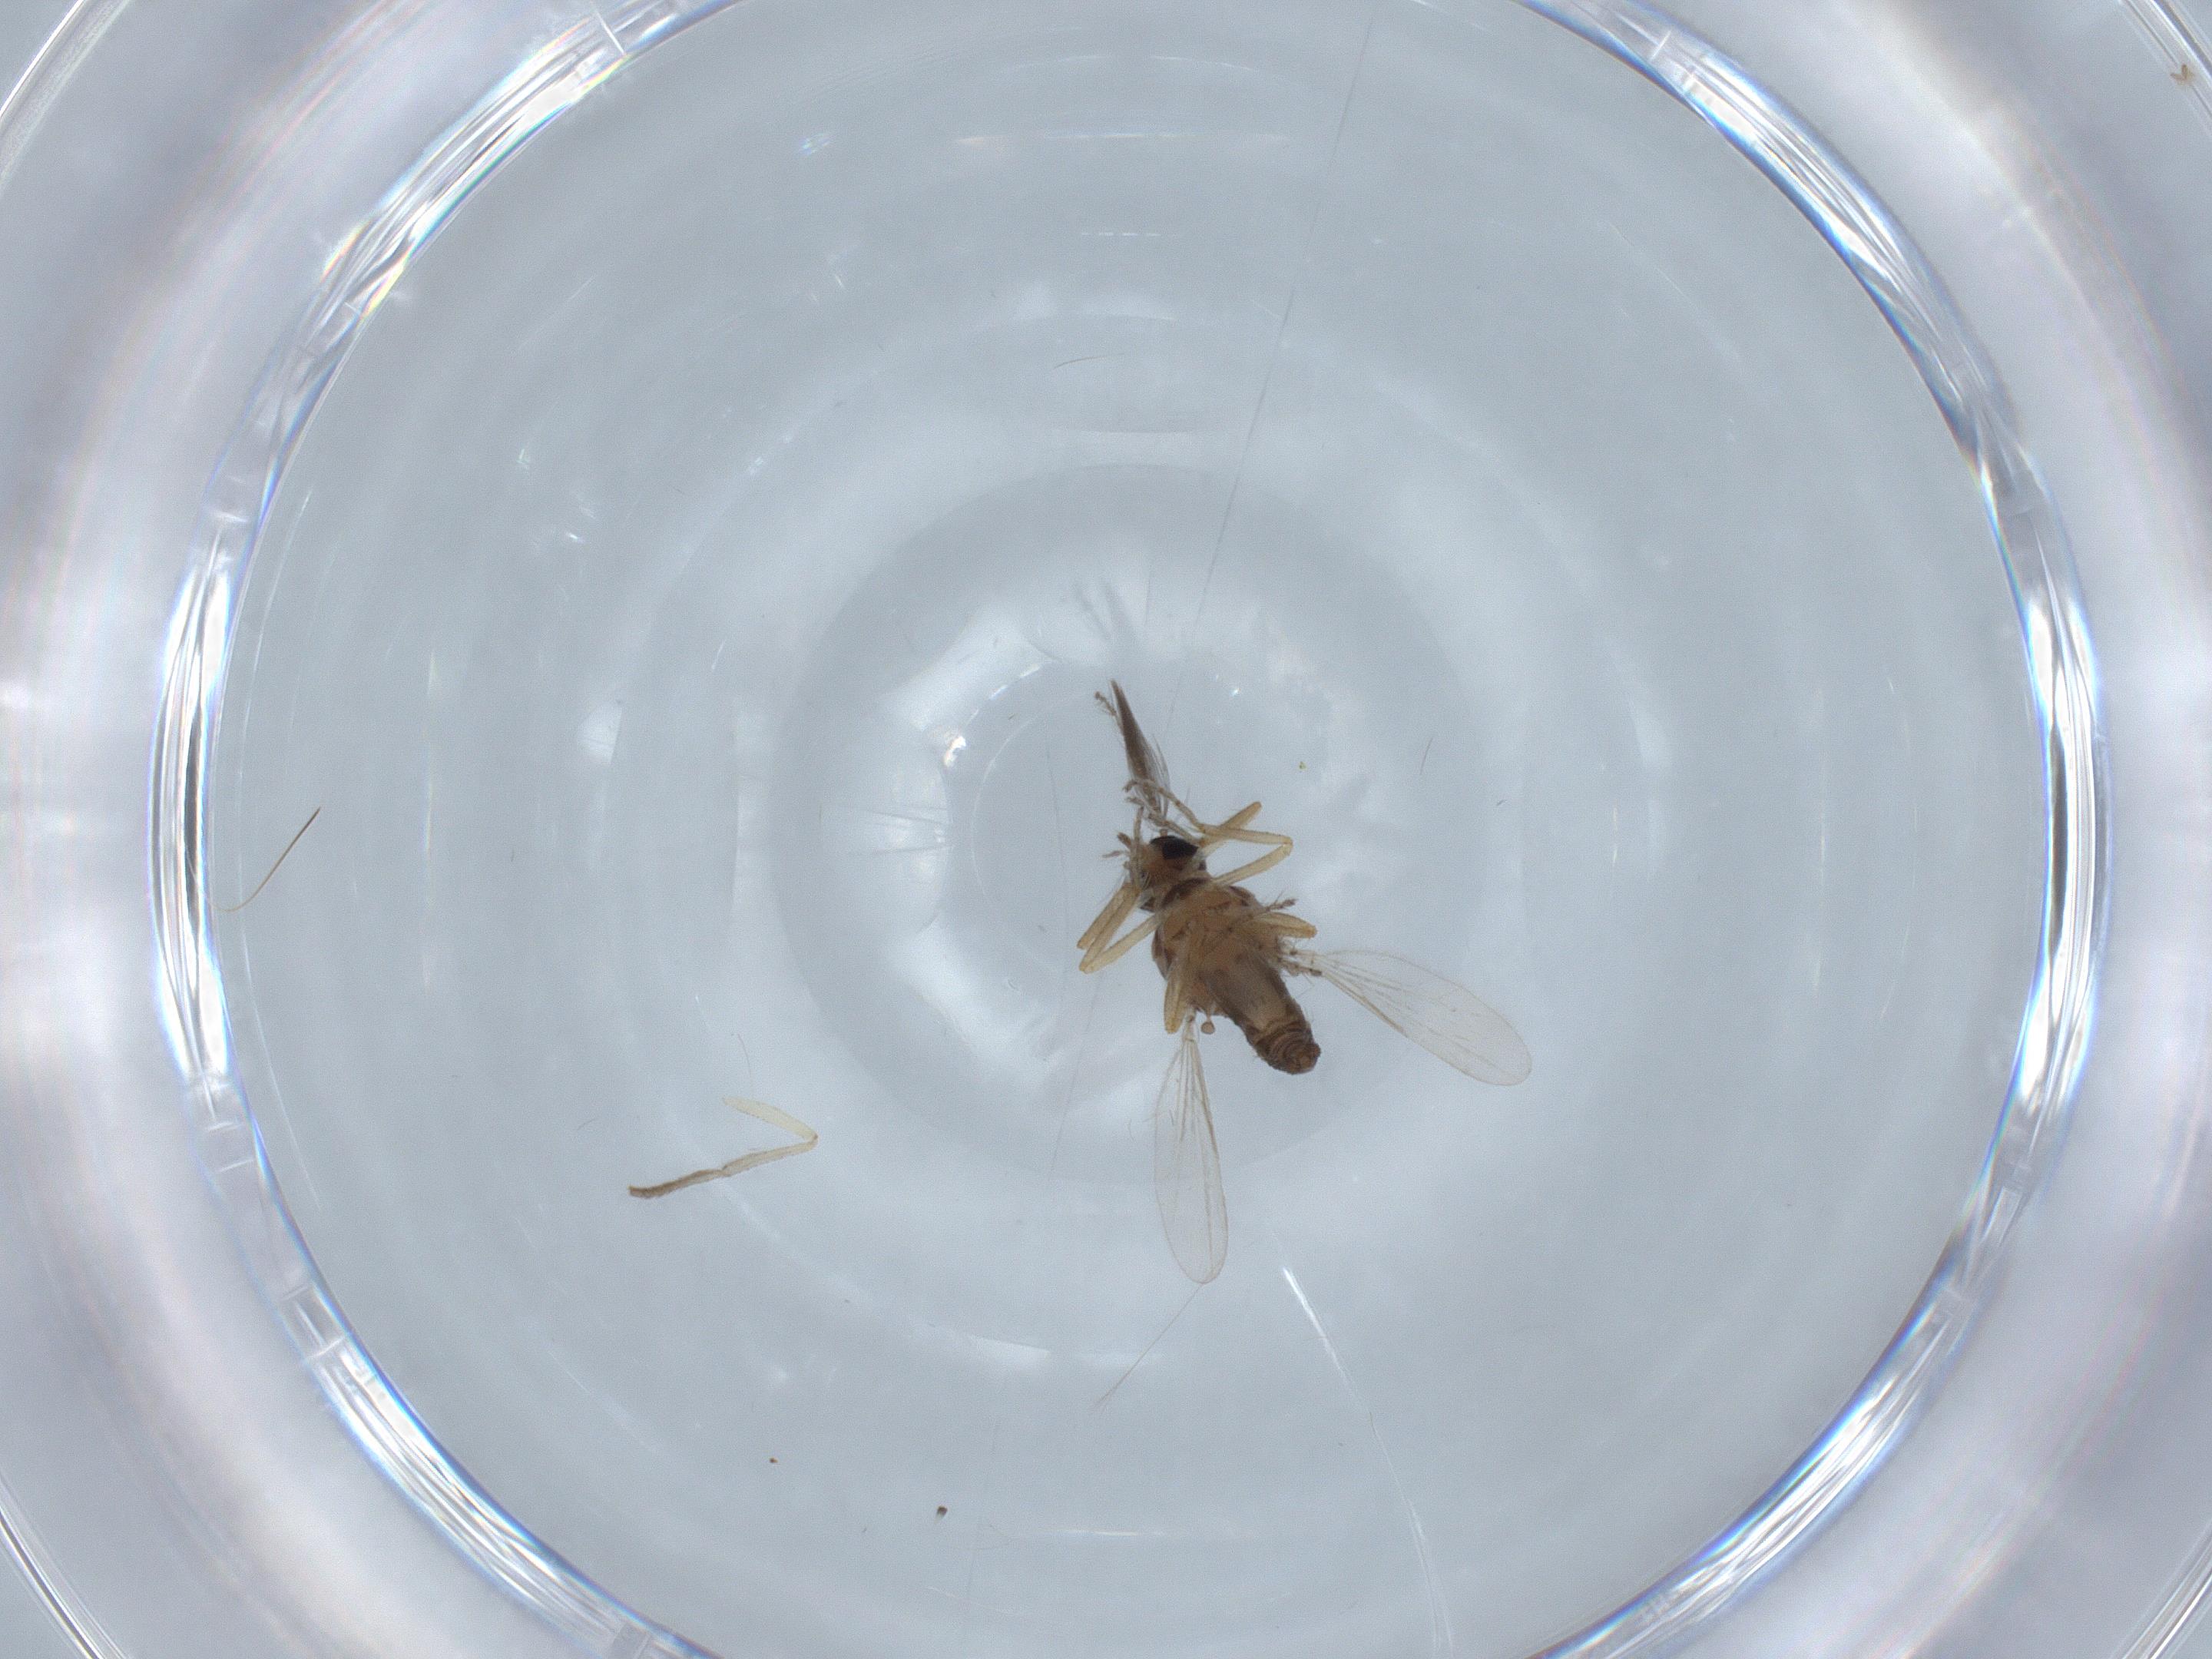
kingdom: Animalia
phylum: Arthropoda
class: Insecta
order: Diptera
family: Ceratopogonidae
